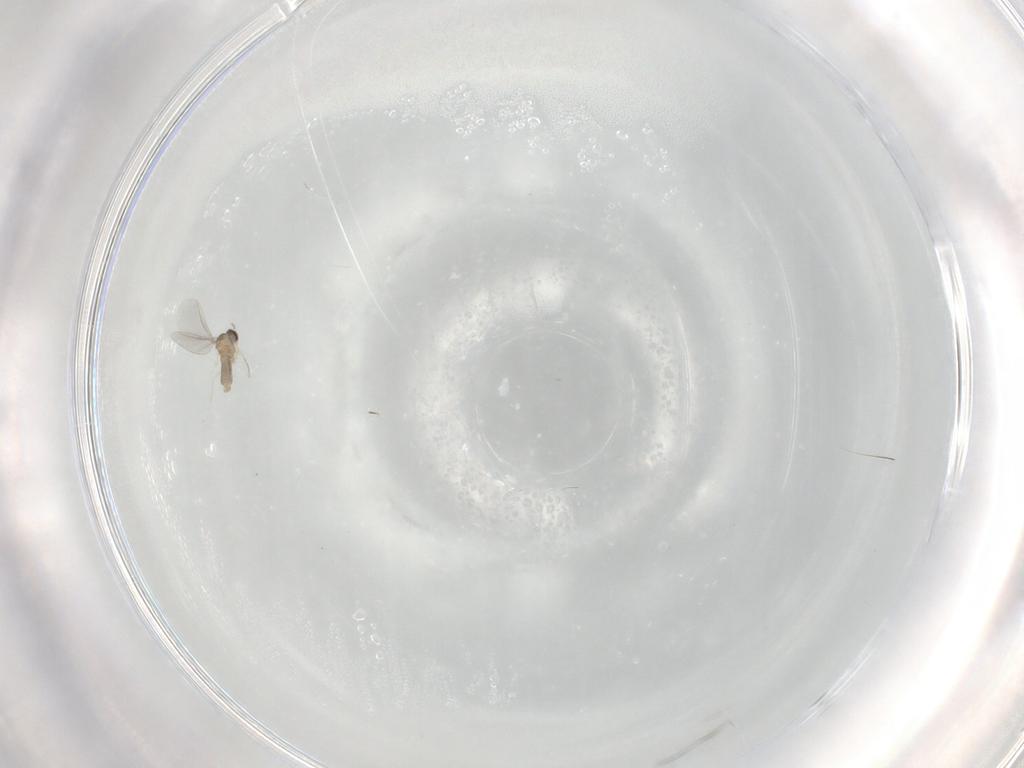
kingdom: Animalia
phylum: Arthropoda
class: Insecta
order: Diptera
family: Cecidomyiidae
